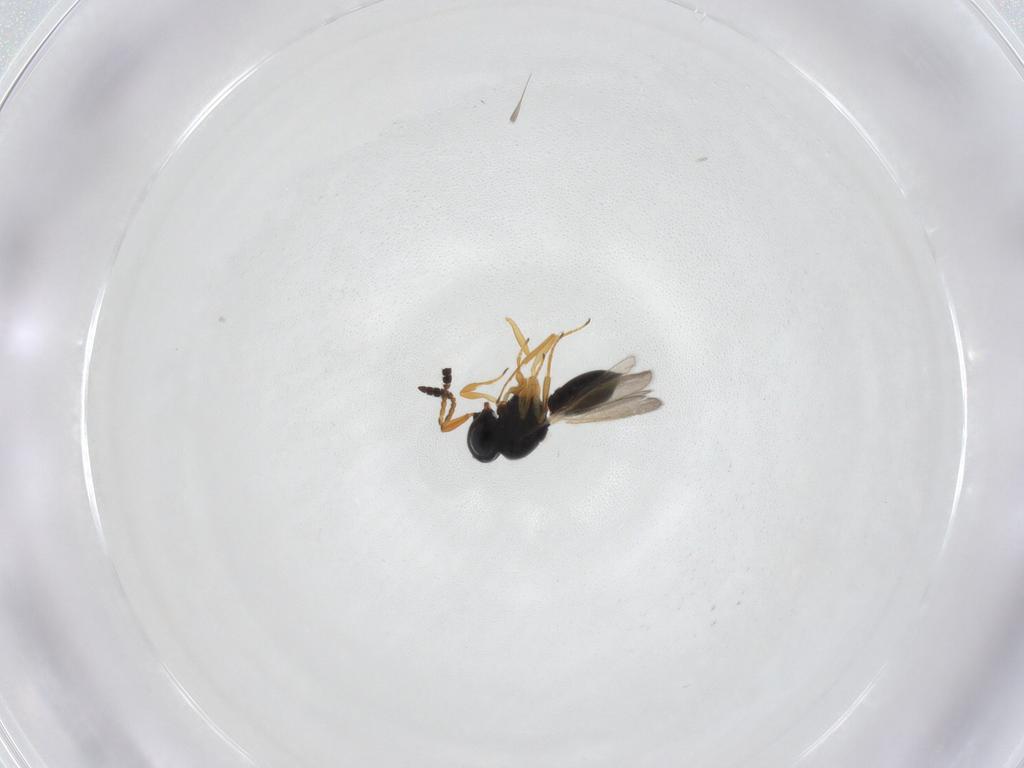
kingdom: Animalia
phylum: Arthropoda
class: Insecta
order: Hymenoptera
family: Scelionidae
